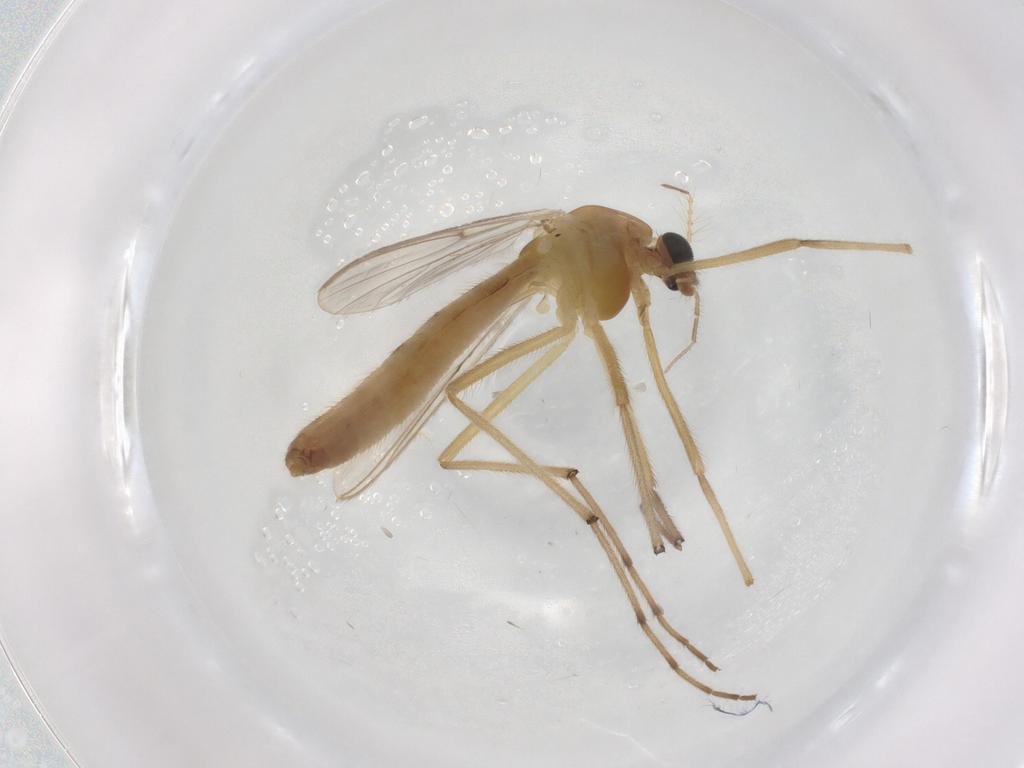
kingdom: Animalia
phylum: Arthropoda
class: Insecta
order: Diptera
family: Chironomidae
